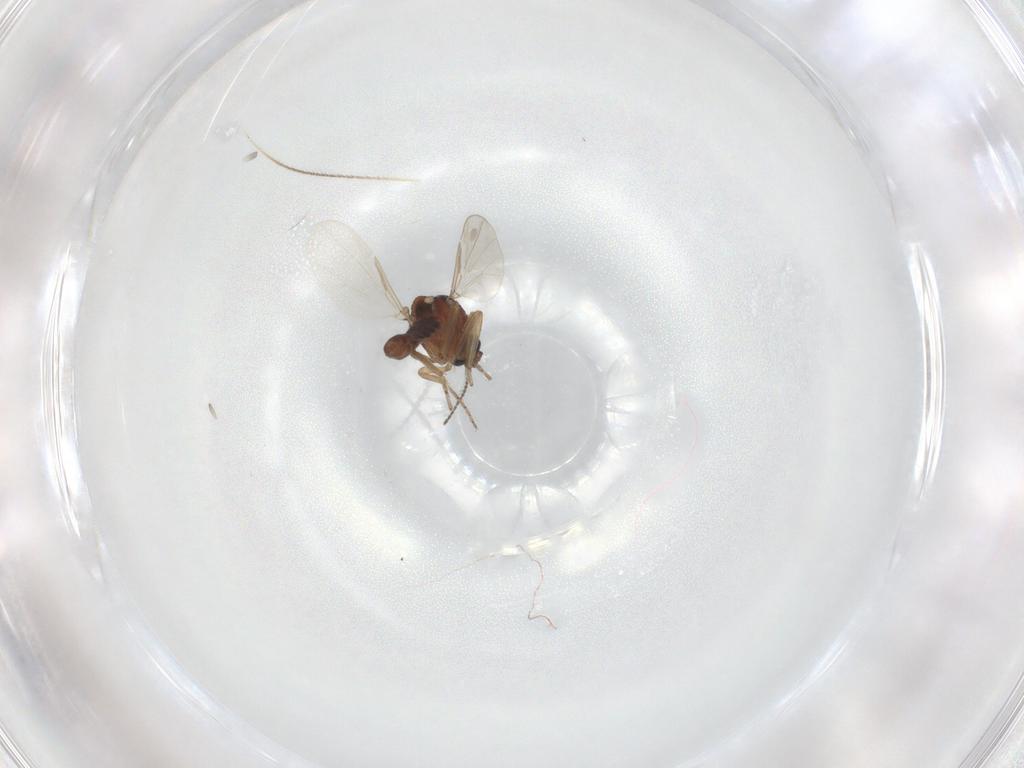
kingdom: Animalia
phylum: Arthropoda
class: Insecta
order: Diptera
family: Ceratopogonidae
